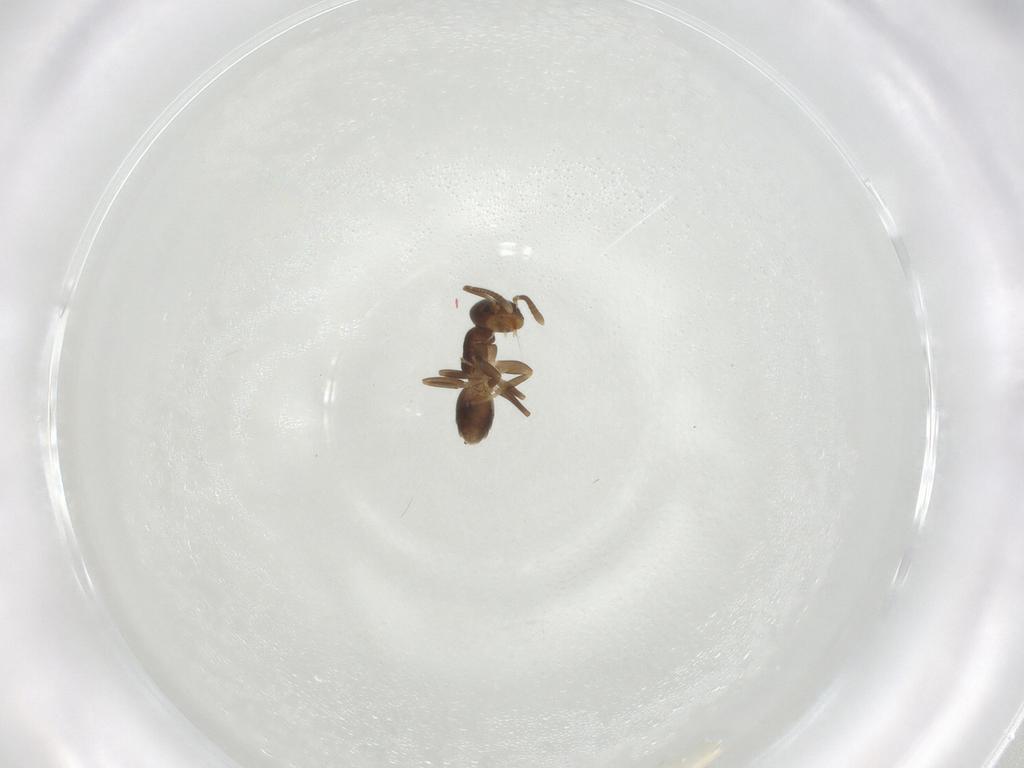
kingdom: Animalia
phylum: Arthropoda
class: Insecta
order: Hymenoptera
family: Formicidae
